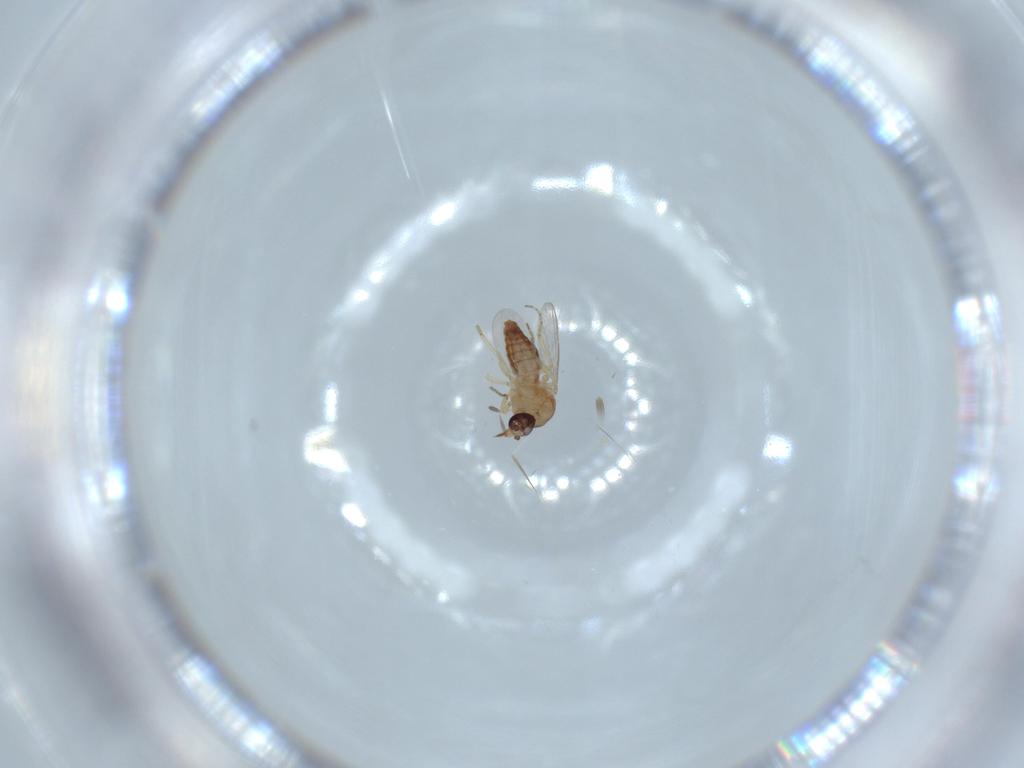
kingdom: Animalia
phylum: Arthropoda
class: Insecta
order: Diptera
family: Ceratopogonidae
